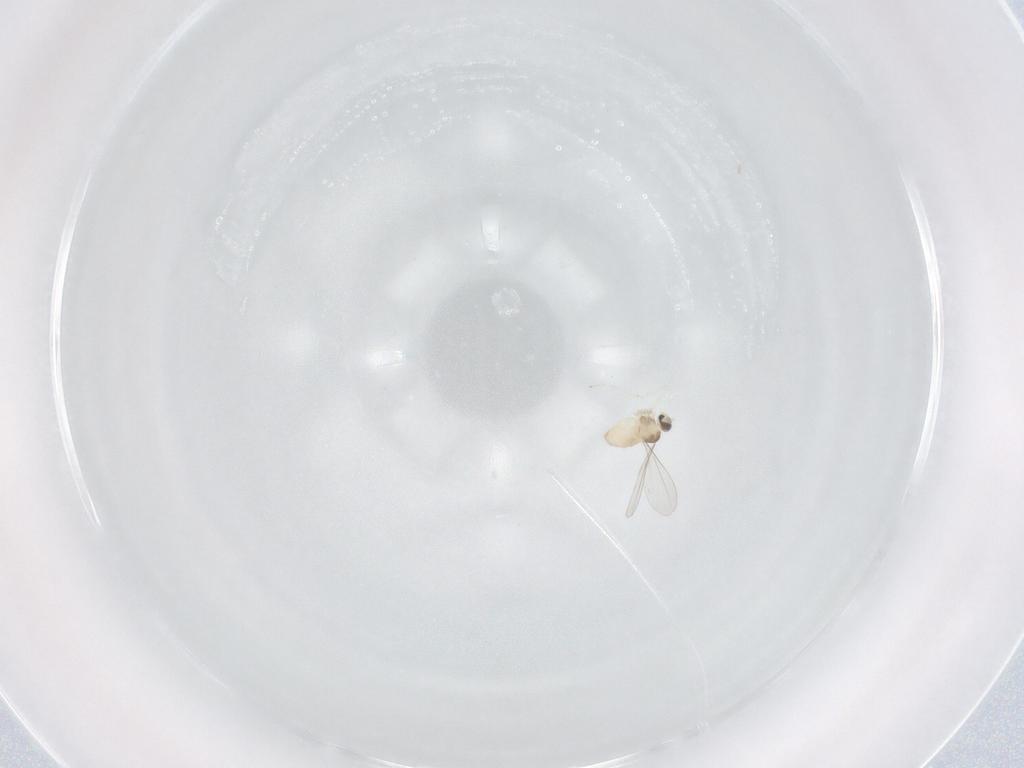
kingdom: Animalia
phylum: Arthropoda
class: Insecta
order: Diptera
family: Cecidomyiidae
